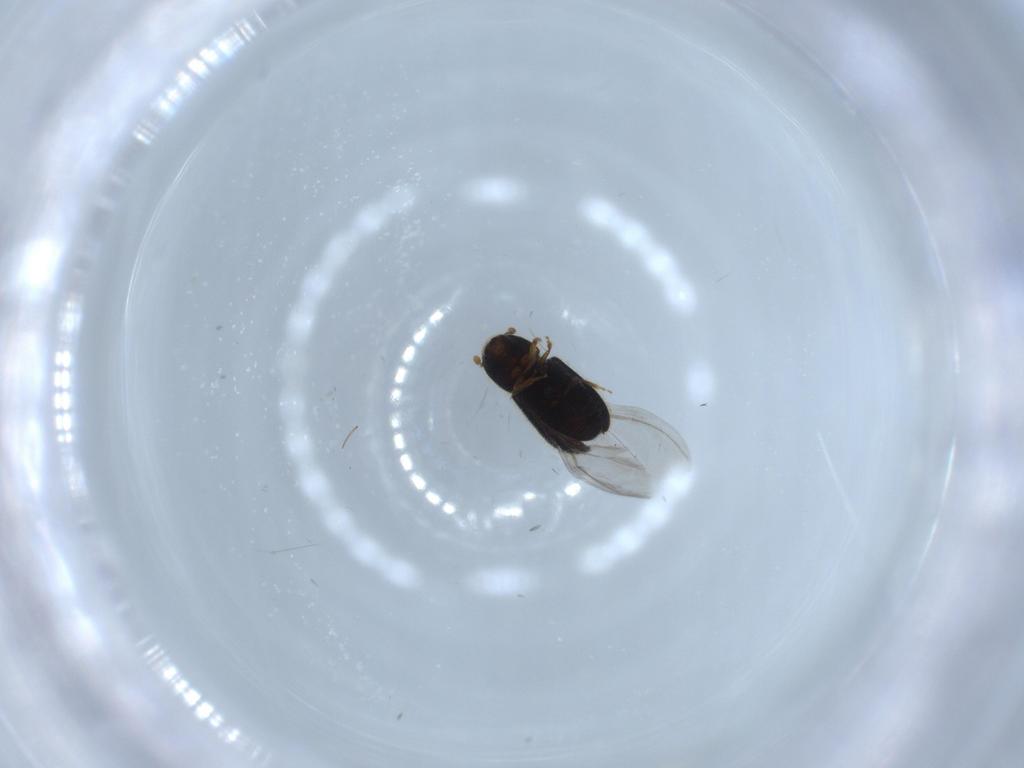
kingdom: Animalia
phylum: Arthropoda
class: Insecta
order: Coleoptera
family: Curculionidae
